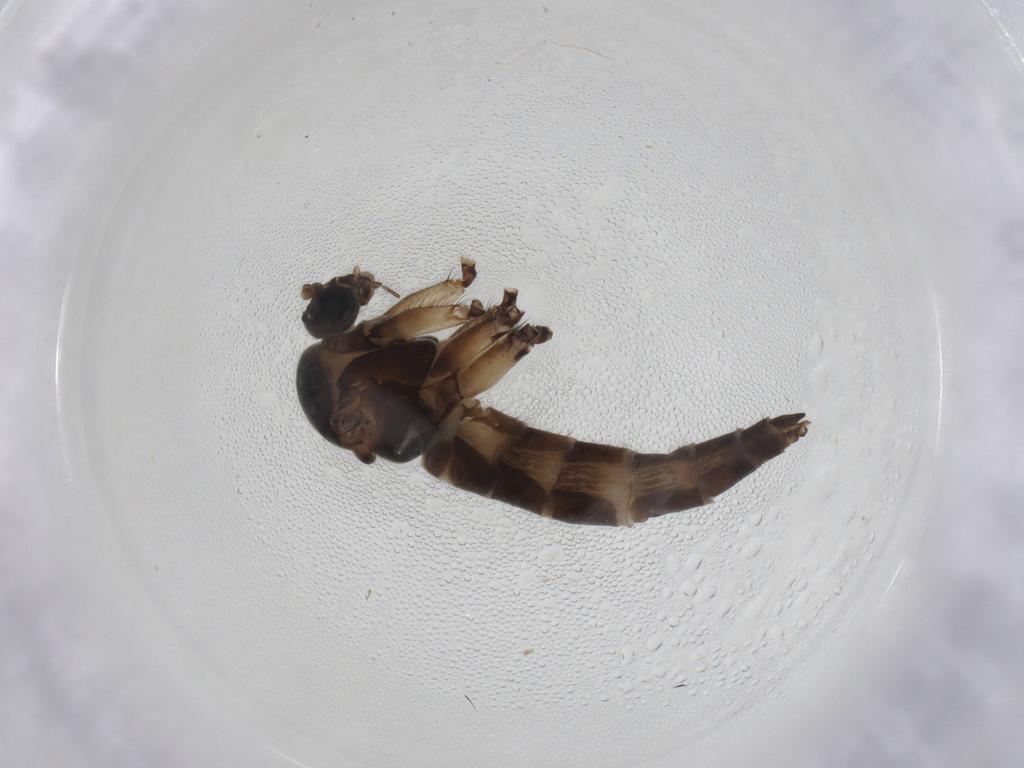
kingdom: Animalia
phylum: Arthropoda
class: Insecta
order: Diptera
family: Sciaridae
